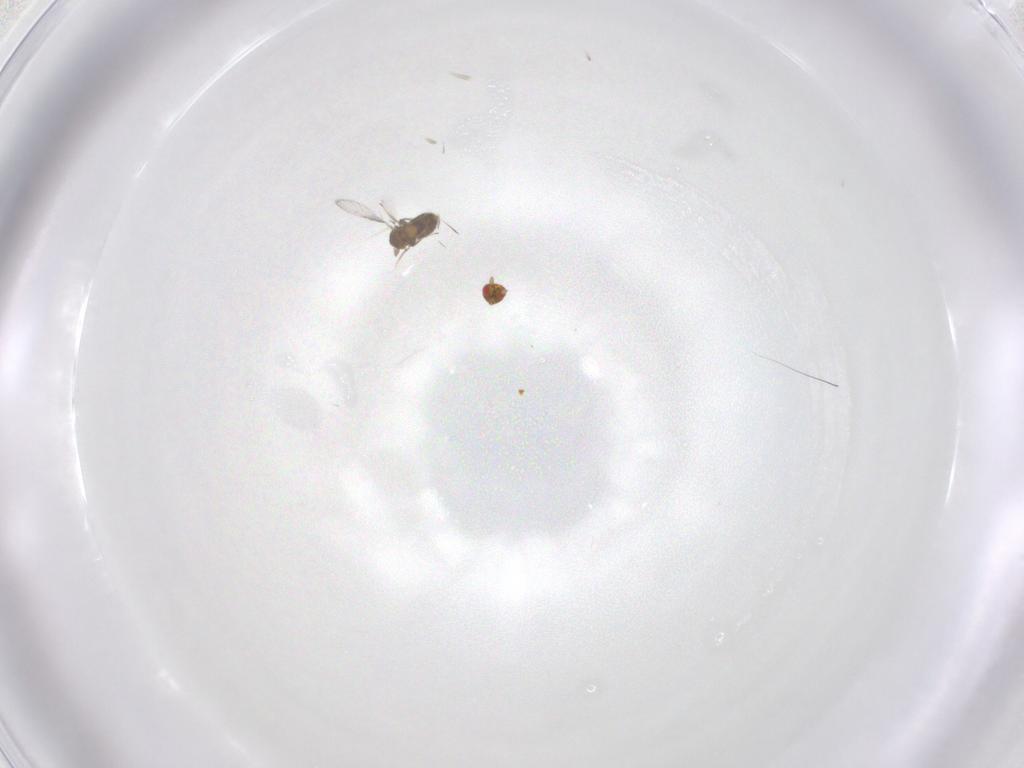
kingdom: Animalia
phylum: Arthropoda
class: Insecta
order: Hymenoptera
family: Trichogrammatidae
